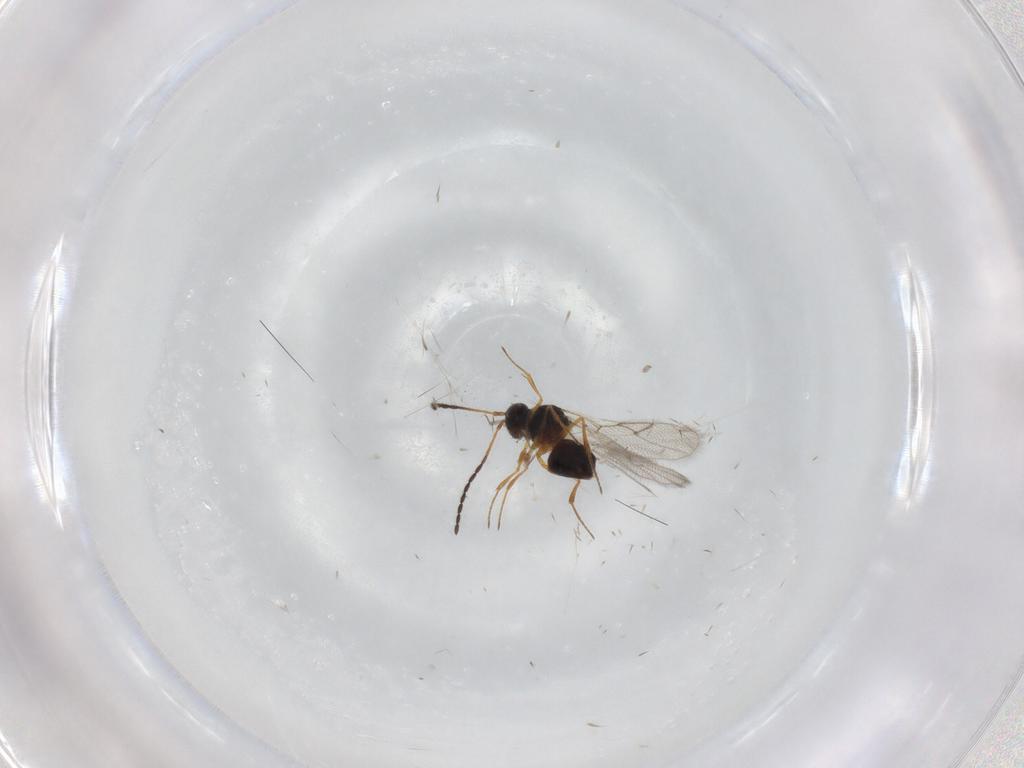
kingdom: Animalia
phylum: Arthropoda
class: Insecta
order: Hymenoptera
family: Figitidae
